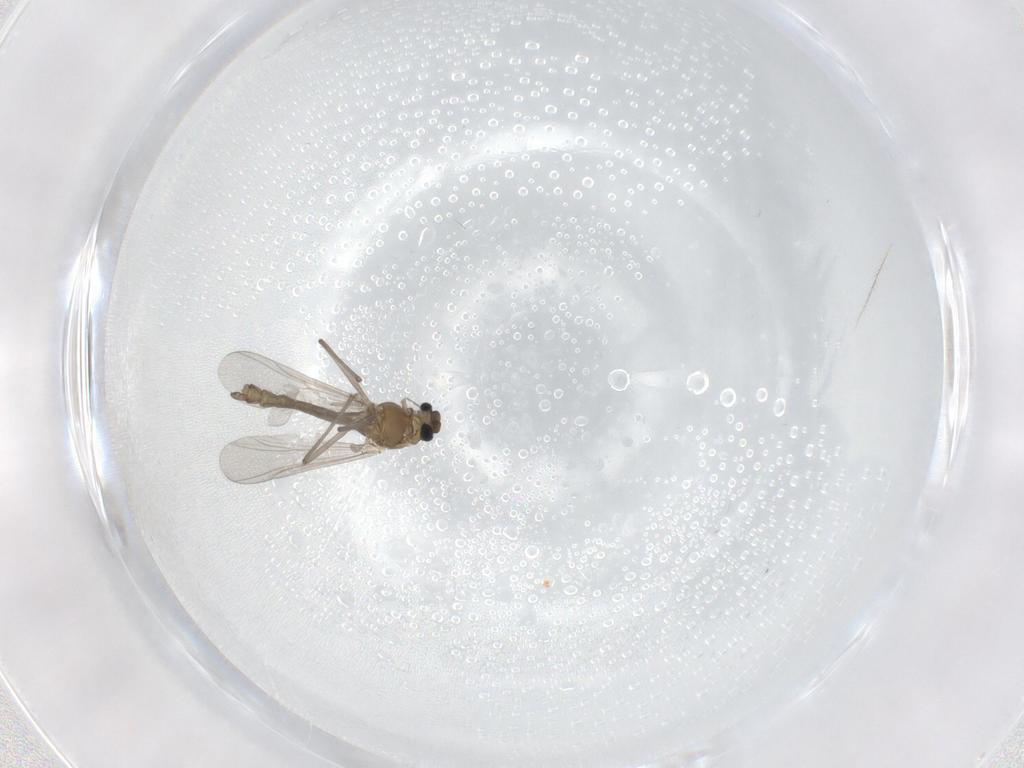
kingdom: Animalia
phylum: Arthropoda
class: Insecta
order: Diptera
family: Chironomidae
